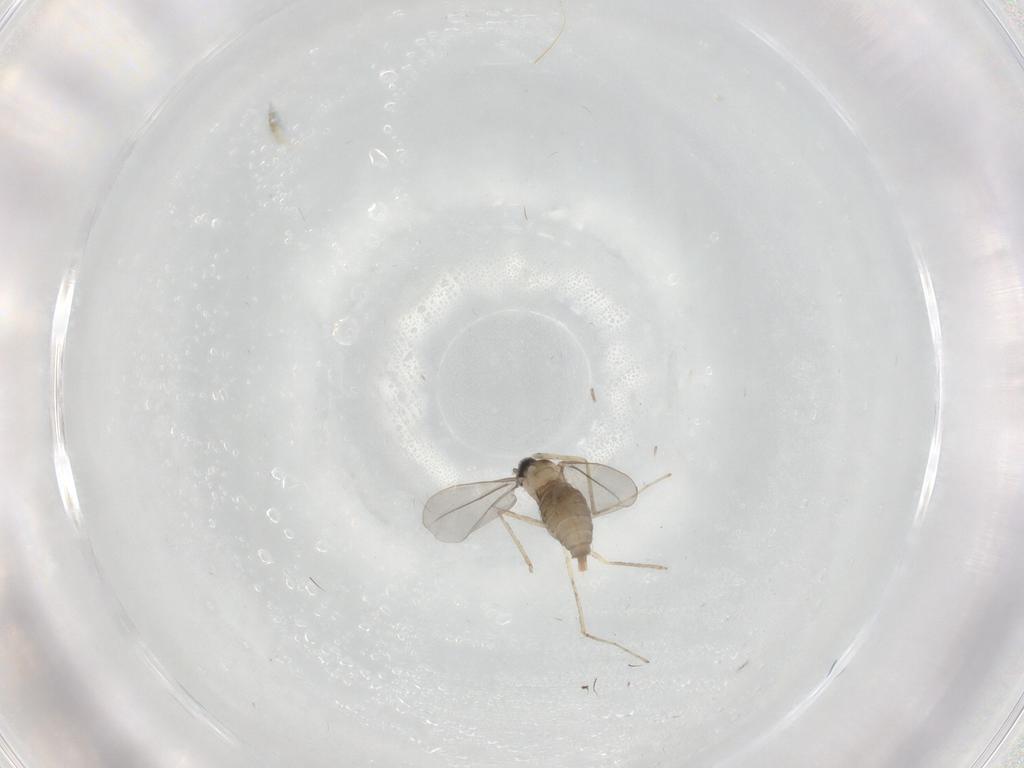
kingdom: Animalia
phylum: Arthropoda
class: Insecta
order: Diptera
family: Cecidomyiidae
